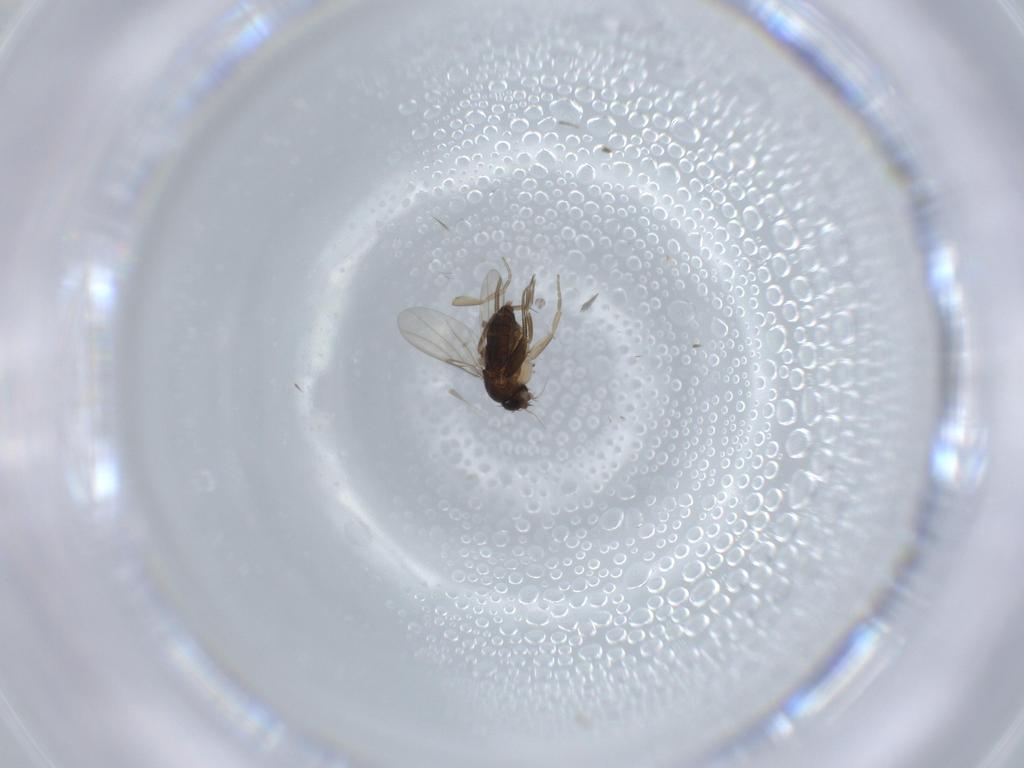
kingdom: Animalia
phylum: Arthropoda
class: Insecta
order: Diptera
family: Phoridae
